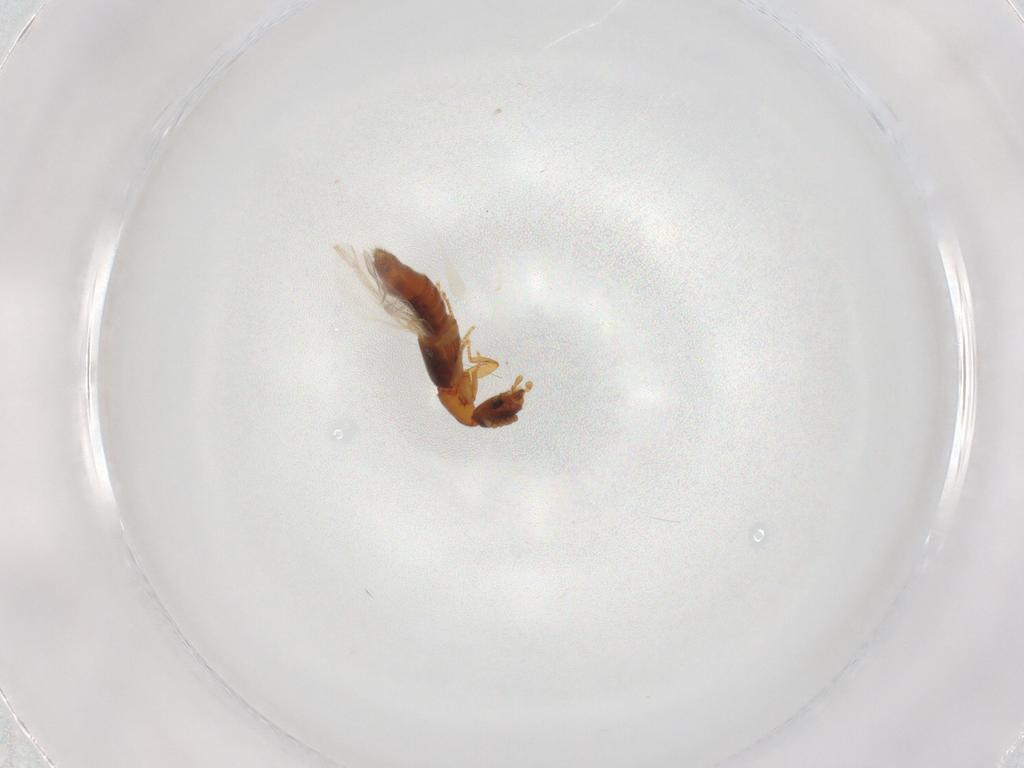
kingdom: Animalia
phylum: Arthropoda
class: Insecta
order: Coleoptera
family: Staphylinidae
